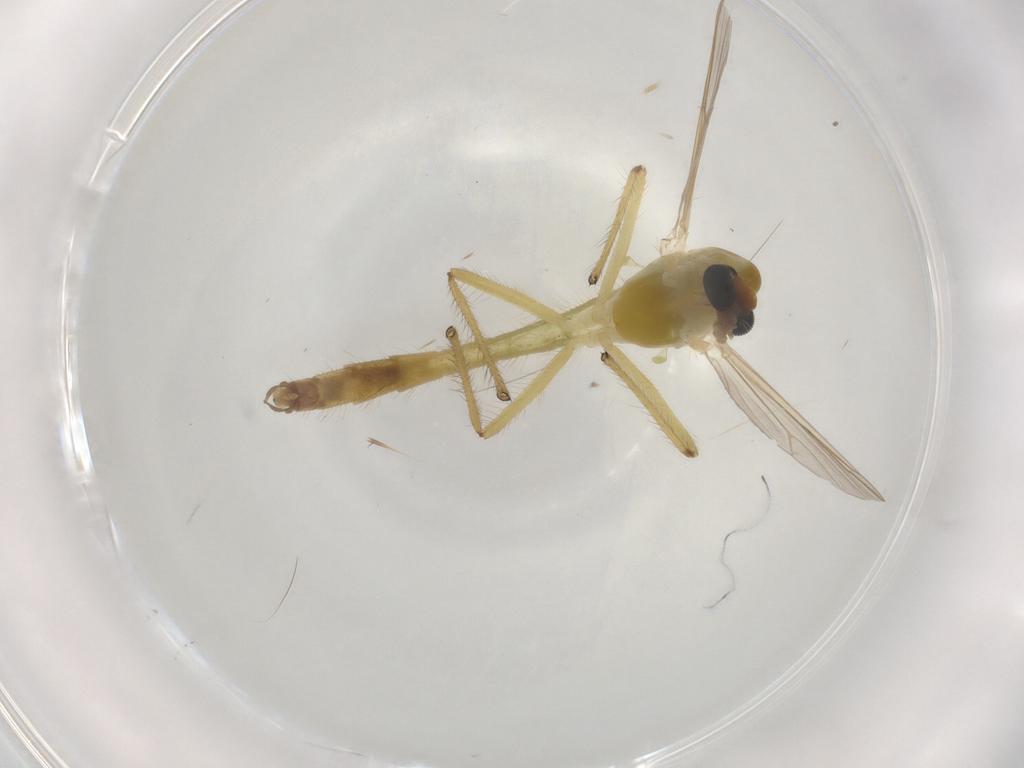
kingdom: Animalia
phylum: Arthropoda
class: Insecta
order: Diptera
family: Chironomidae
